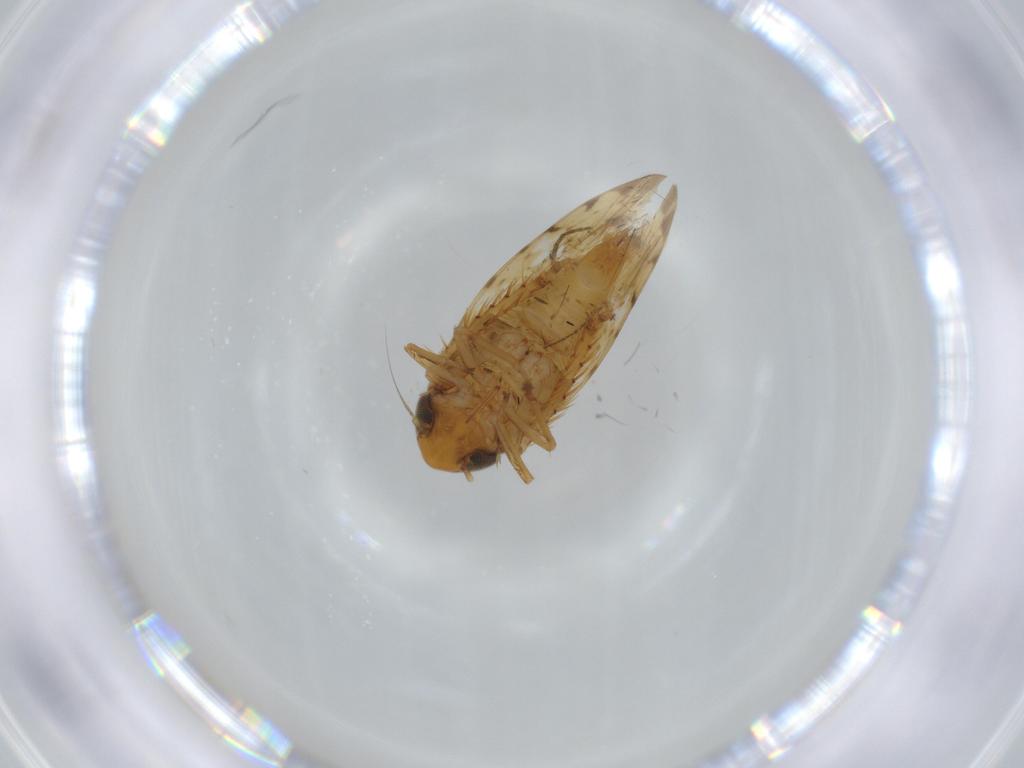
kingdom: Animalia
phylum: Arthropoda
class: Insecta
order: Hemiptera
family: Cicadellidae
